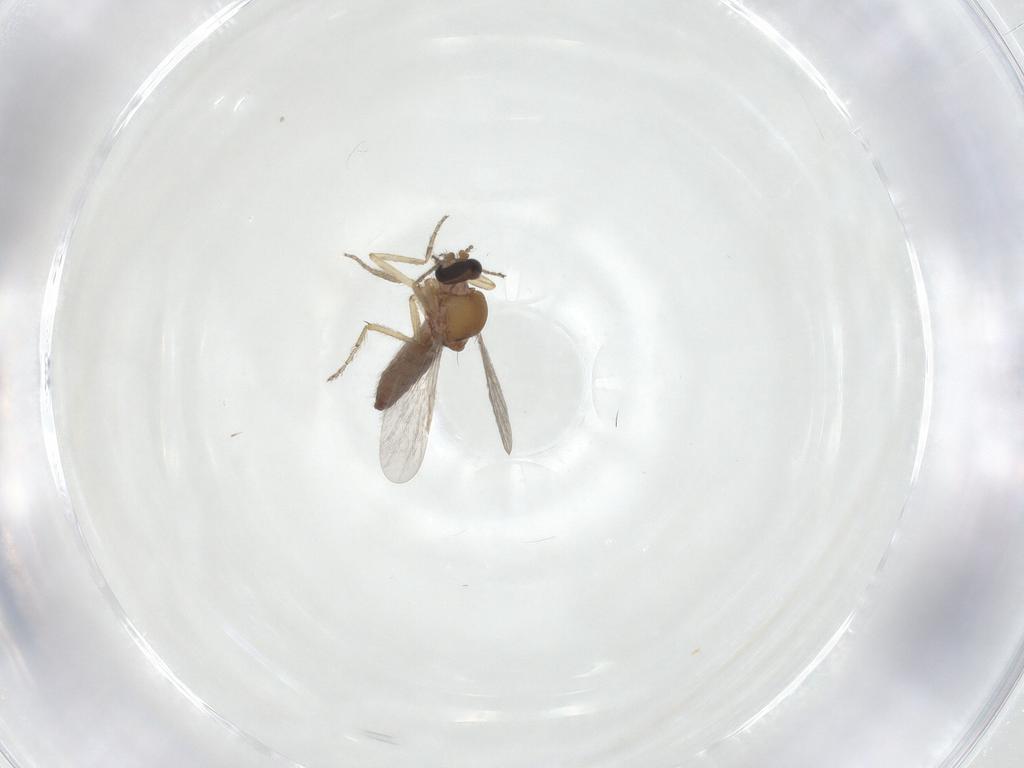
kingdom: Animalia
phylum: Arthropoda
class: Insecta
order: Diptera
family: Ceratopogonidae
